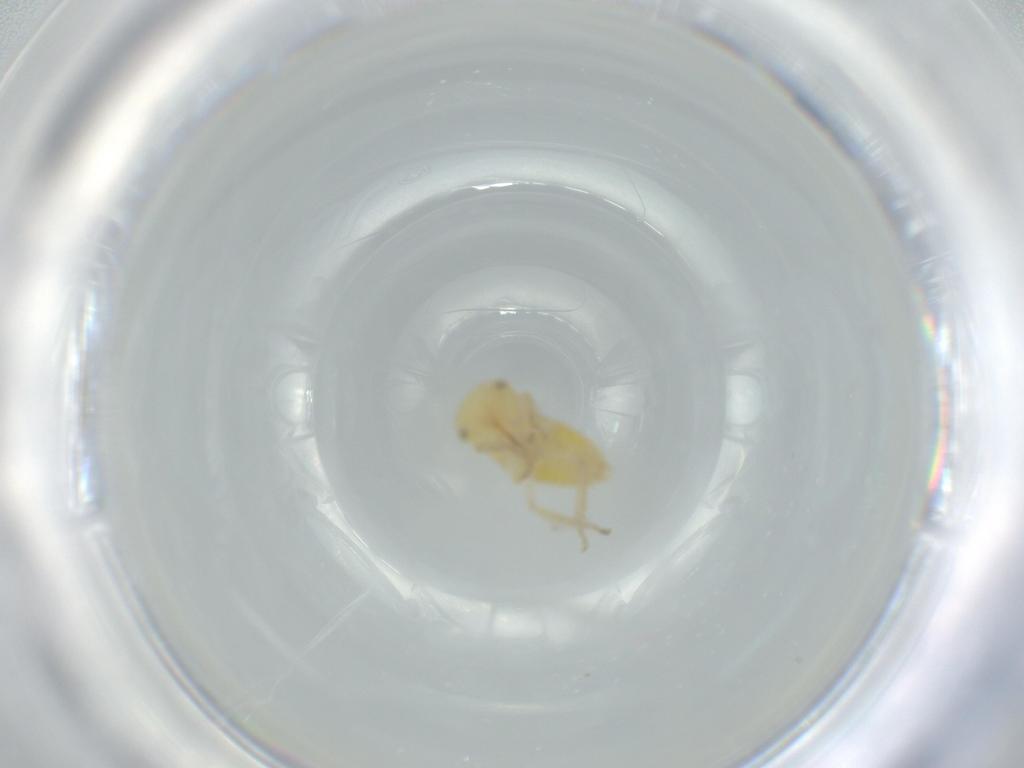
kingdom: Animalia
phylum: Arthropoda
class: Insecta
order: Hemiptera
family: Cicadellidae
